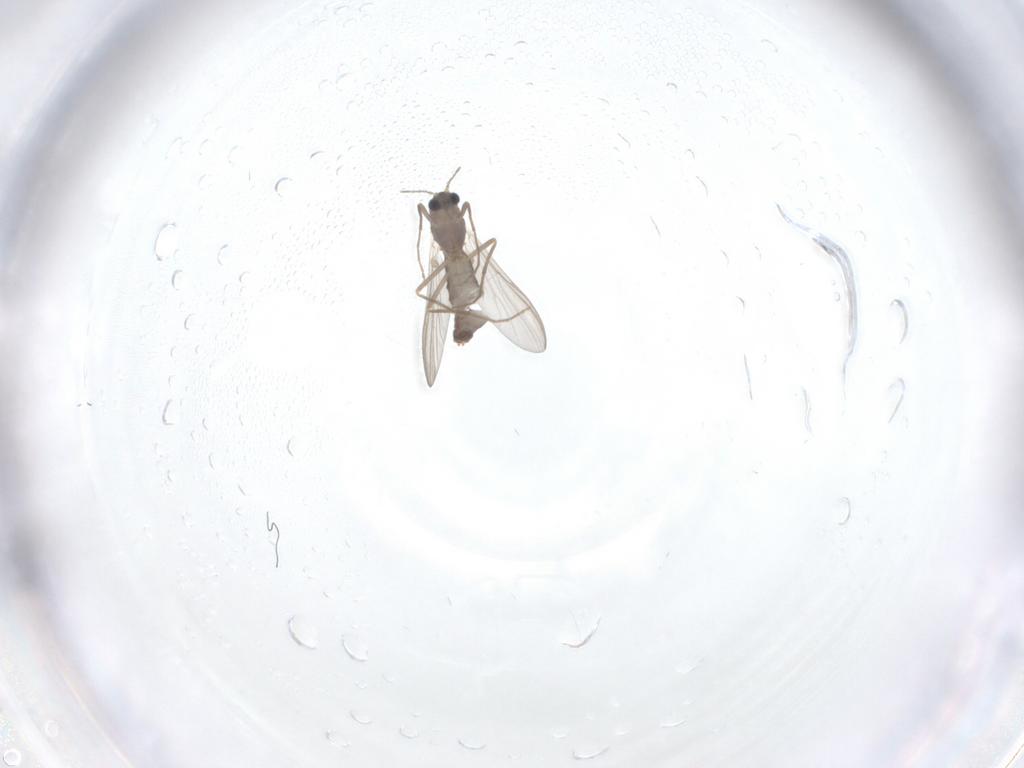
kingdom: Animalia
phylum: Arthropoda
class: Insecta
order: Diptera
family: Chironomidae
